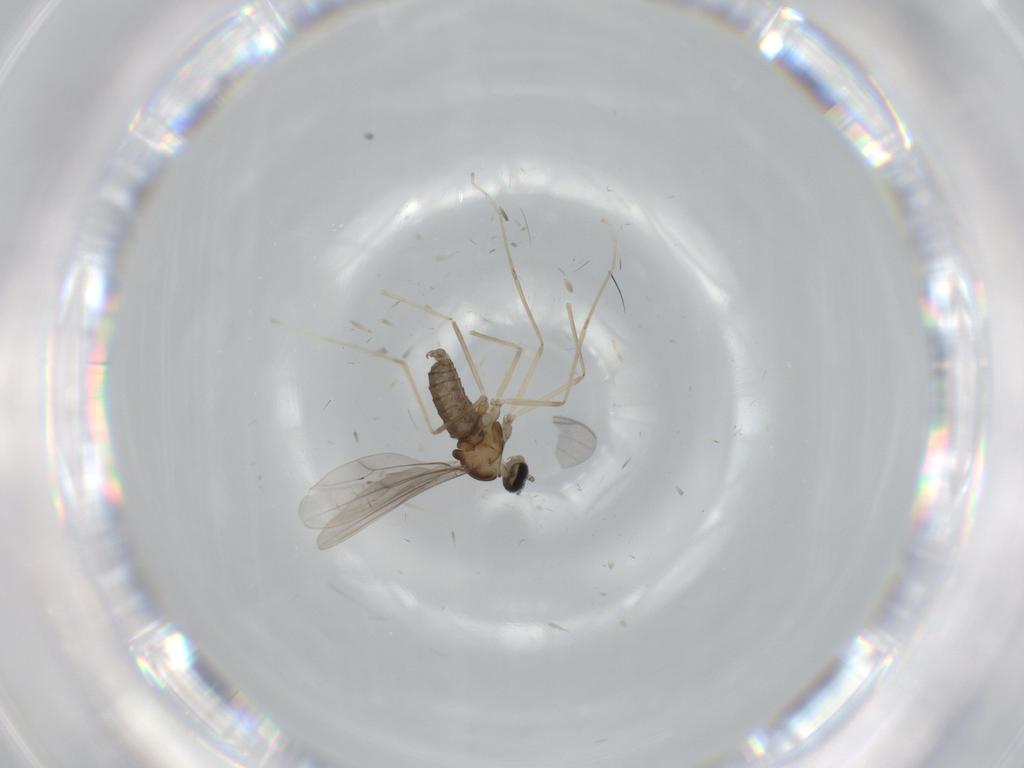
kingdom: Animalia
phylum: Arthropoda
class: Insecta
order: Diptera
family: Cecidomyiidae
